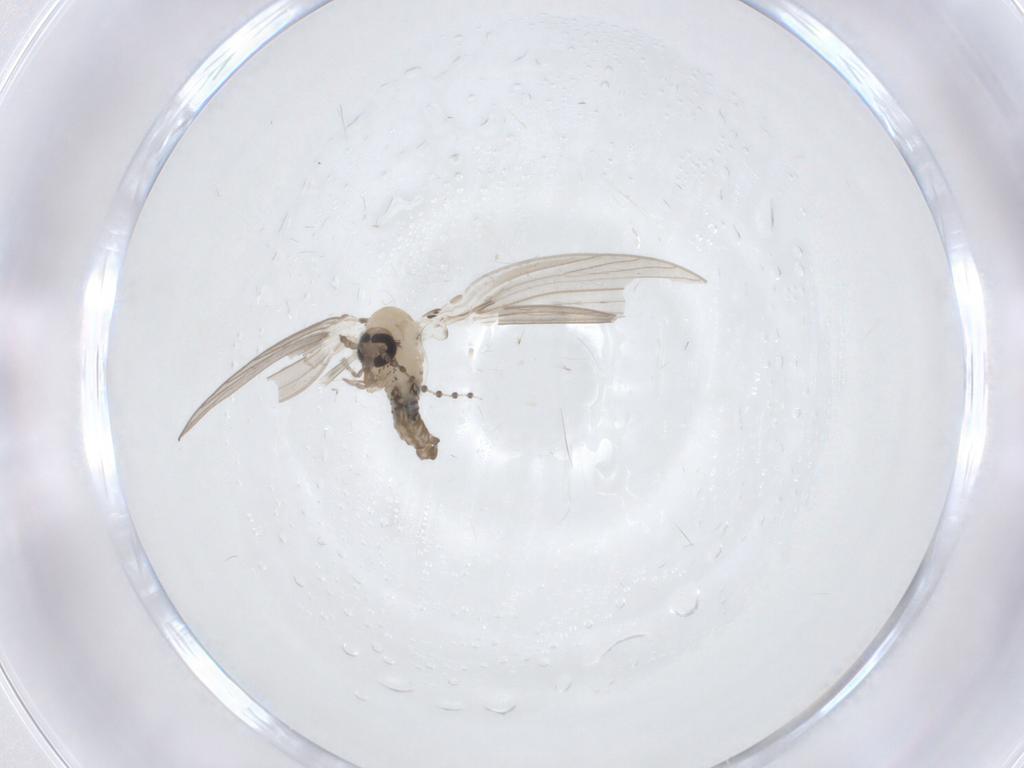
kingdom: Animalia
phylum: Arthropoda
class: Insecta
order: Diptera
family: Psychodidae
